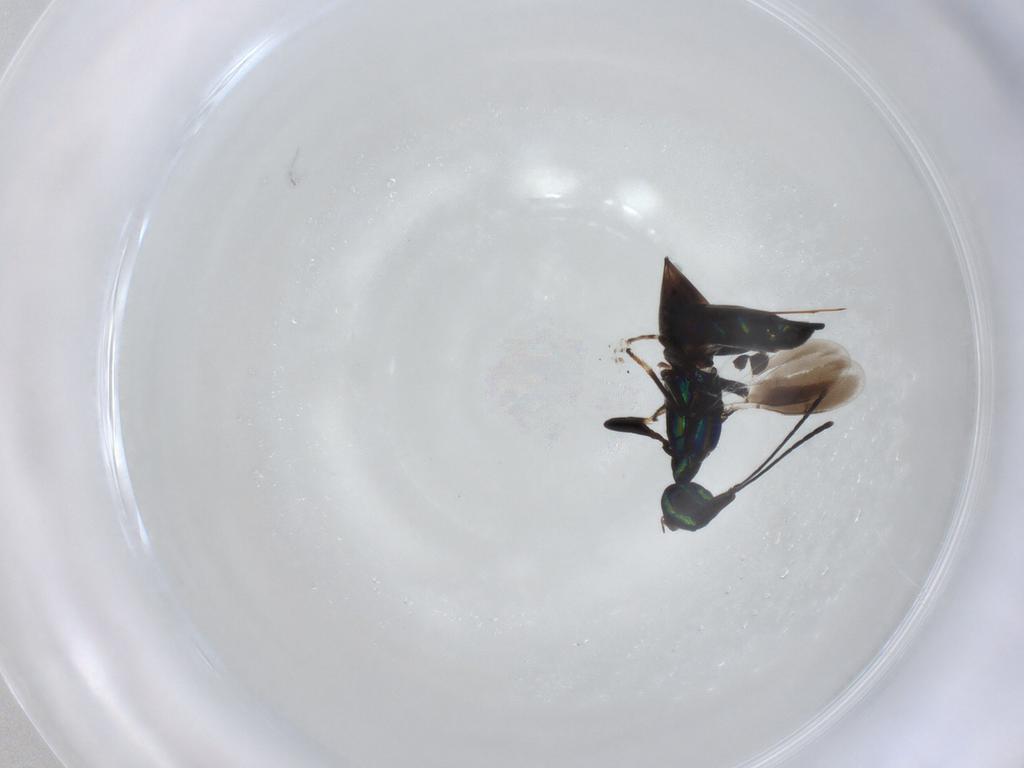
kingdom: Animalia
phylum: Arthropoda
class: Insecta
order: Hymenoptera
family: Pteromalidae
